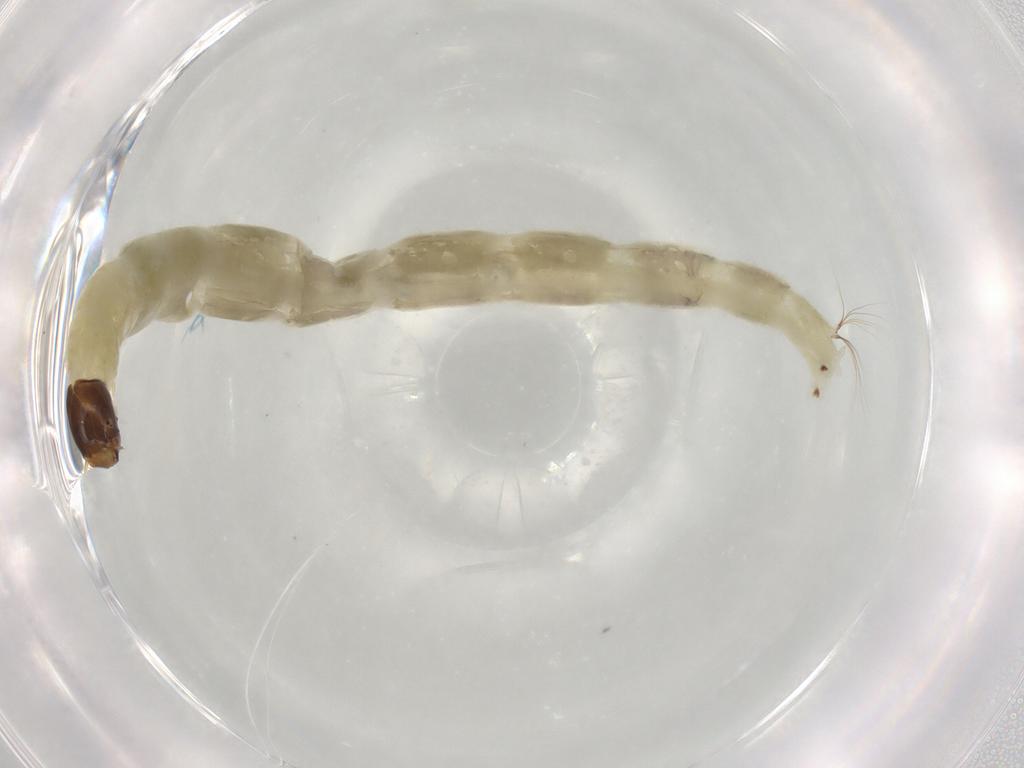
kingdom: Animalia
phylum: Arthropoda
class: Insecta
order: Diptera
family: Chironomidae
